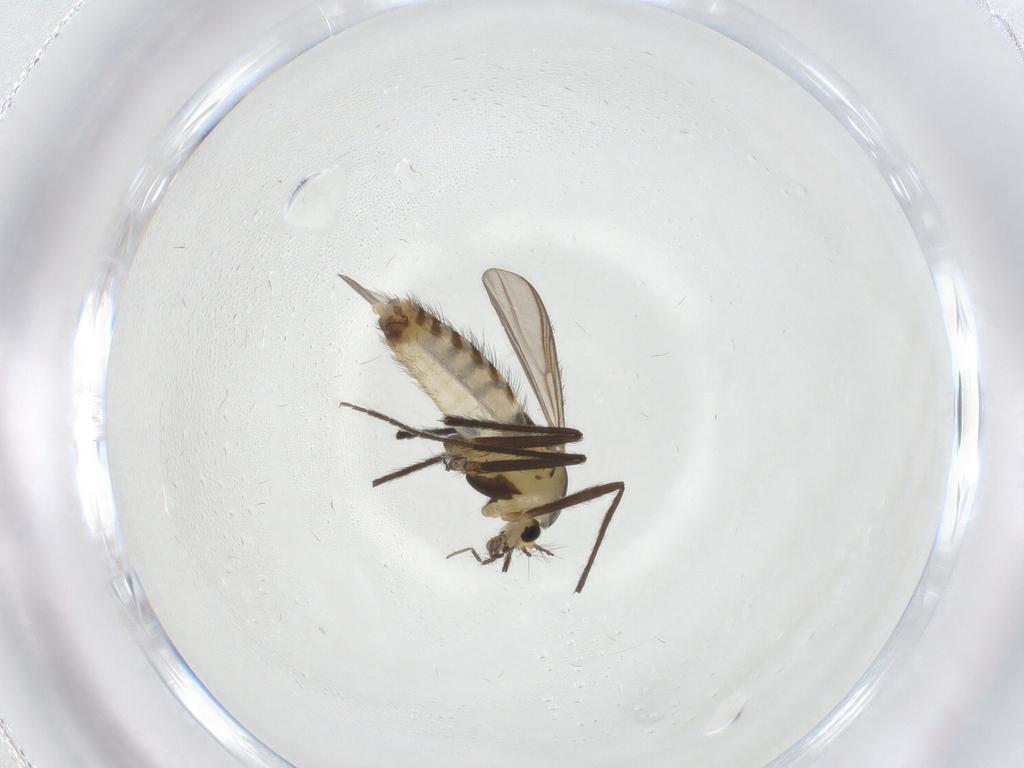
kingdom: Animalia
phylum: Arthropoda
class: Insecta
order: Diptera
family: Chironomidae
